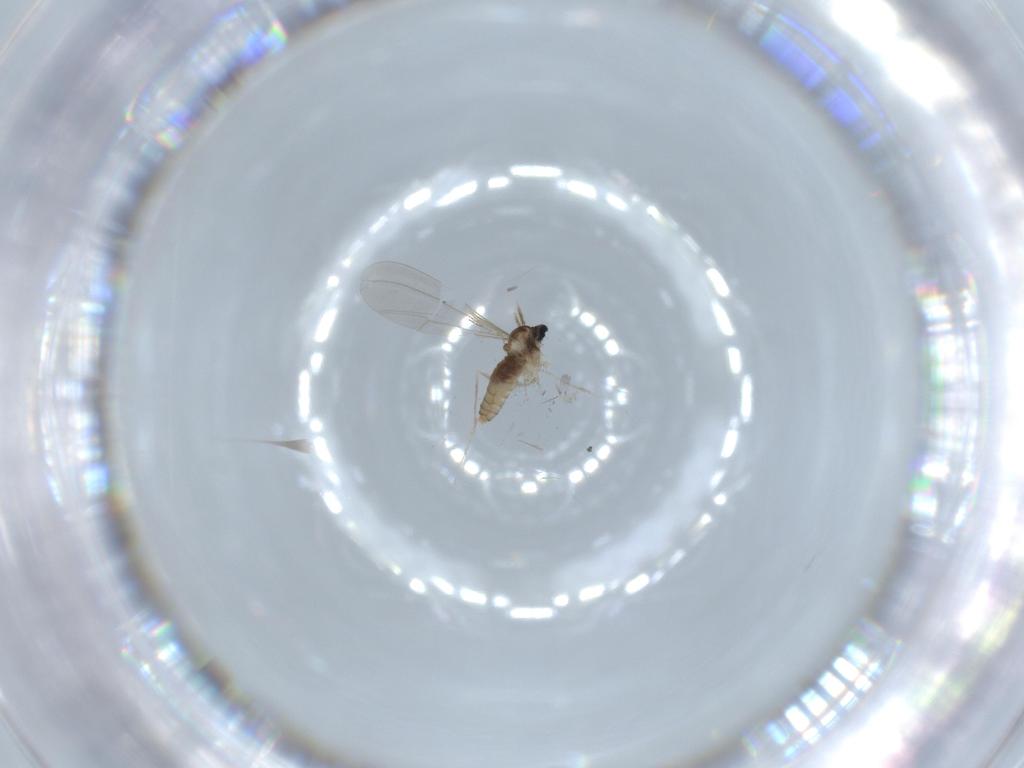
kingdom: Animalia
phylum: Arthropoda
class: Insecta
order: Diptera
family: Cecidomyiidae
